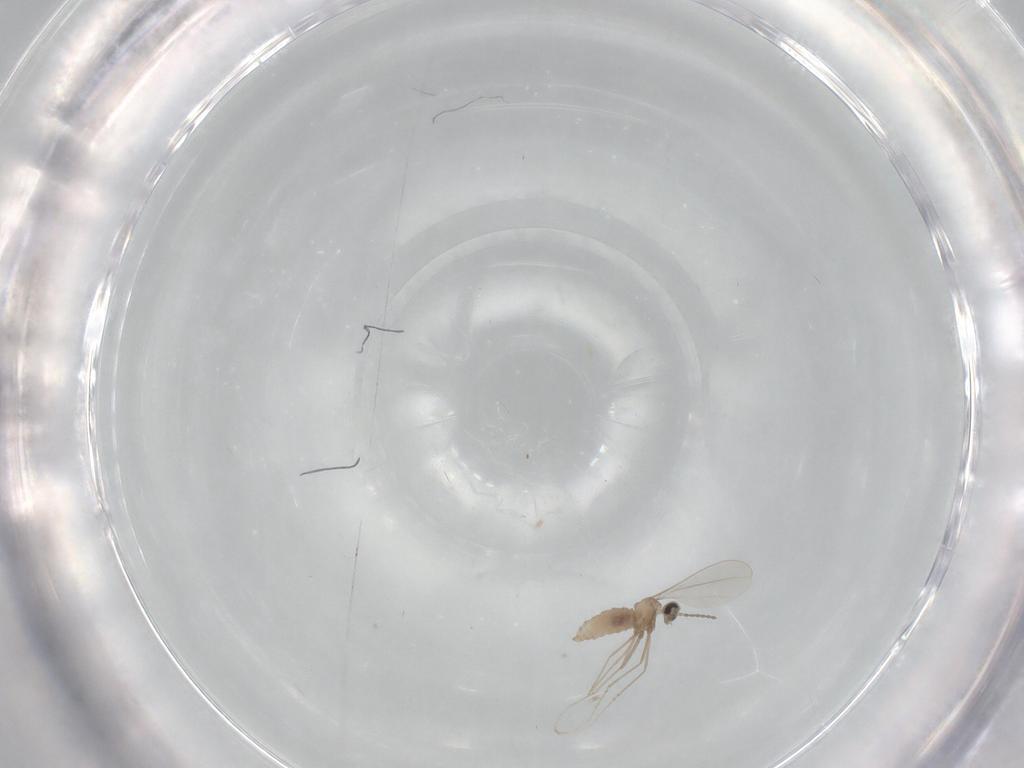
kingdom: Animalia
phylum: Arthropoda
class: Insecta
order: Diptera
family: Cecidomyiidae
